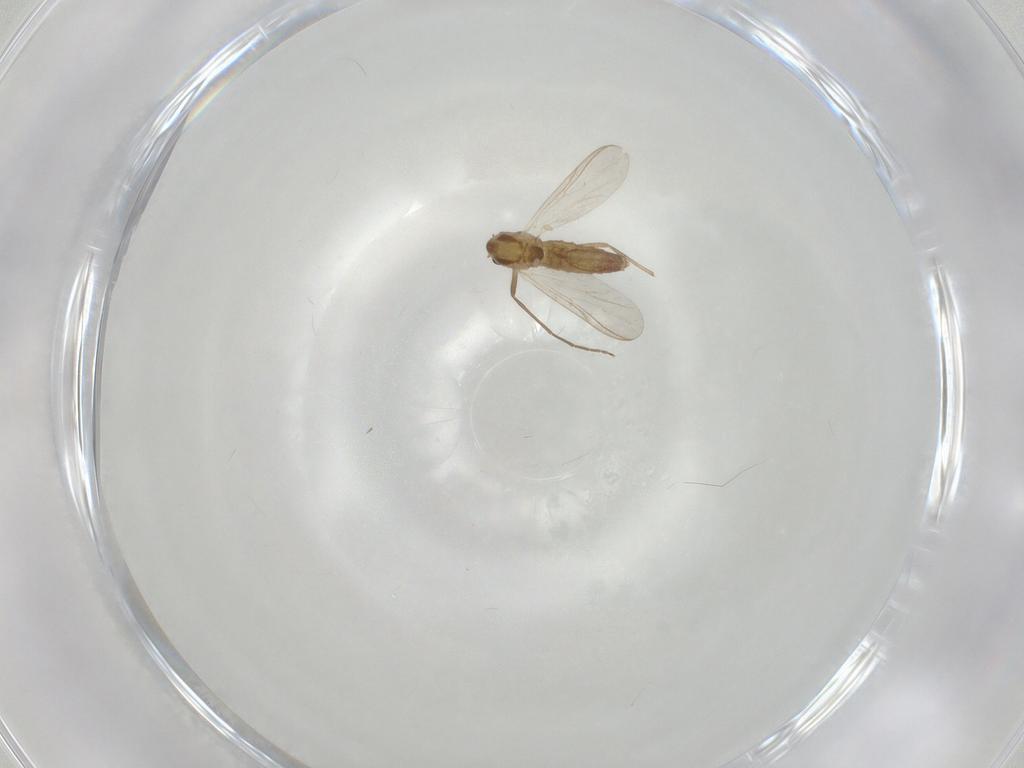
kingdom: Animalia
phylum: Arthropoda
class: Insecta
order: Diptera
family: Chironomidae
